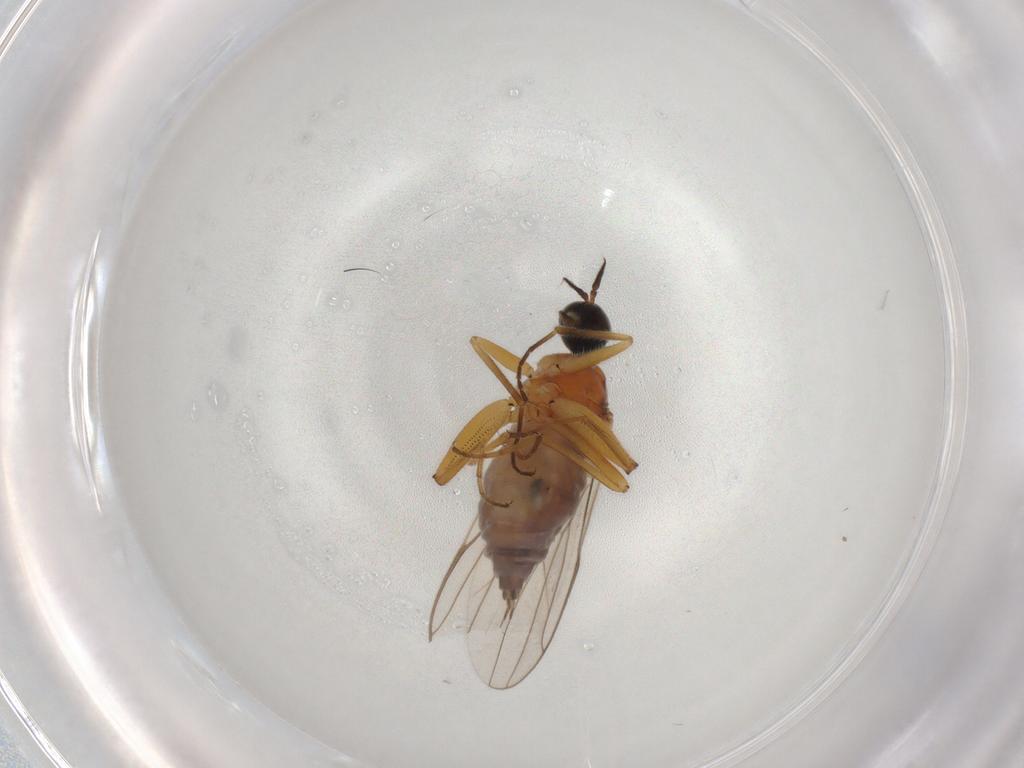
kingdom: Animalia
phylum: Arthropoda
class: Insecta
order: Diptera
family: Hybotidae
